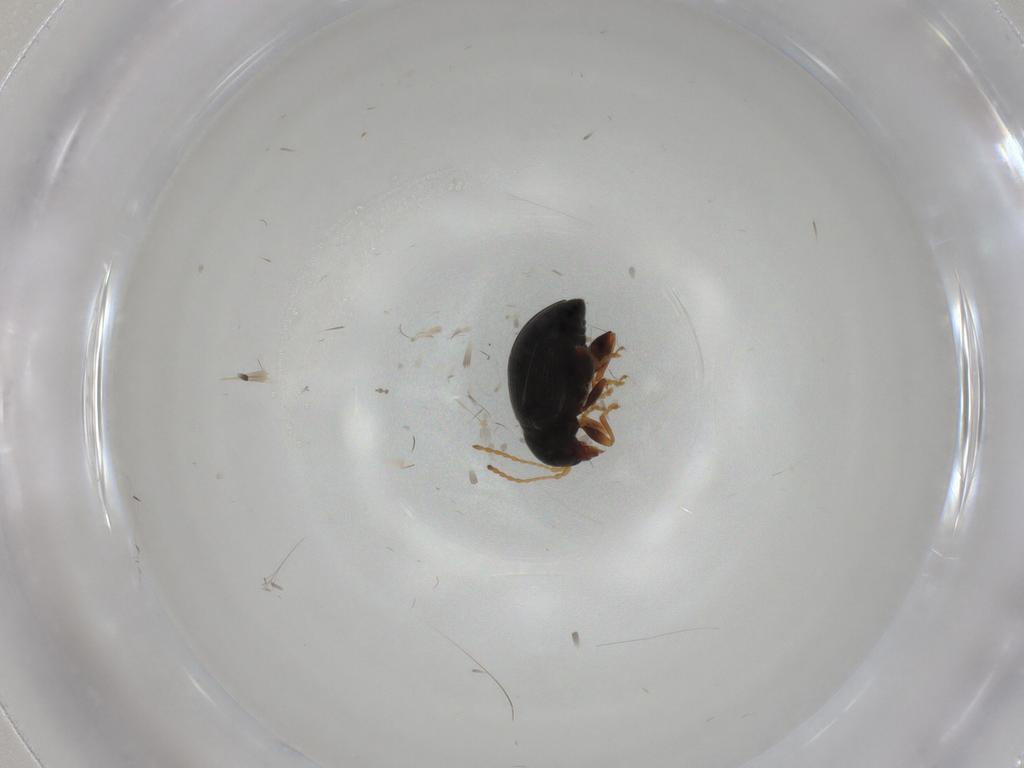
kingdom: Animalia
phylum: Arthropoda
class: Insecta
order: Coleoptera
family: Chrysomelidae
